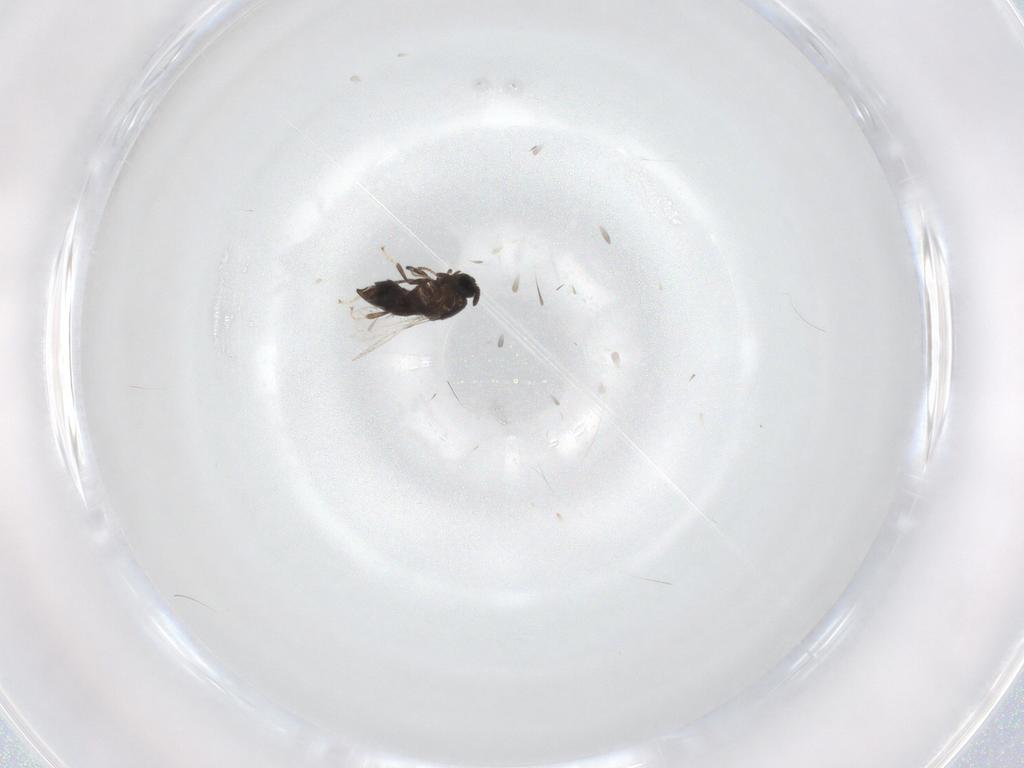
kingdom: Animalia
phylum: Arthropoda
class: Insecta
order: Diptera
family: Scatopsidae
